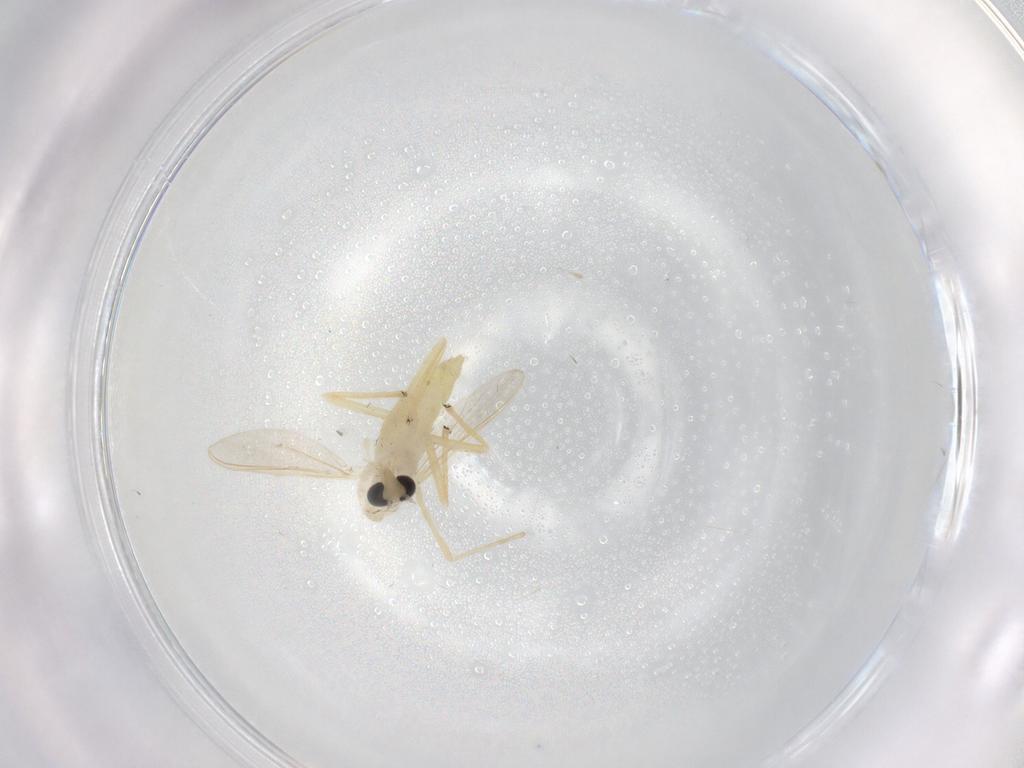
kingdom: Animalia
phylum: Arthropoda
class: Insecta
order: Diptera
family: Chironomidae
